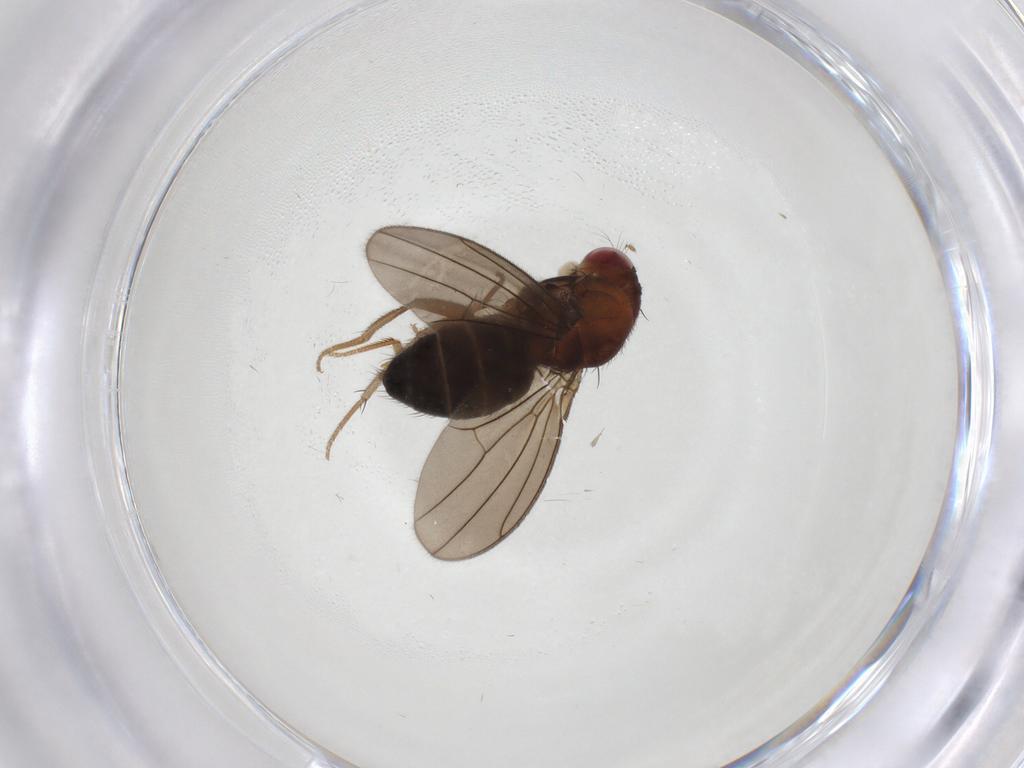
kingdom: Animalia
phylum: Arthropoda
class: Insecta
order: Diptera
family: Drosophilidae
